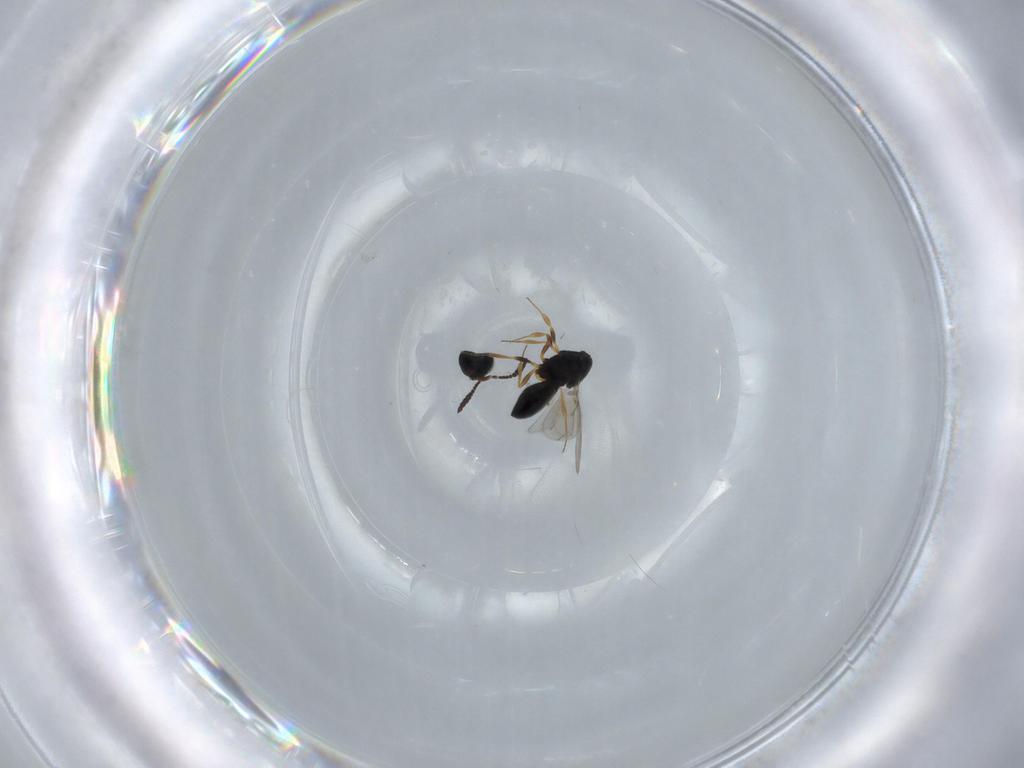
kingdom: Animalia
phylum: Arthropoda
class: Insecta
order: Hymenoptera
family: Scelionidae
